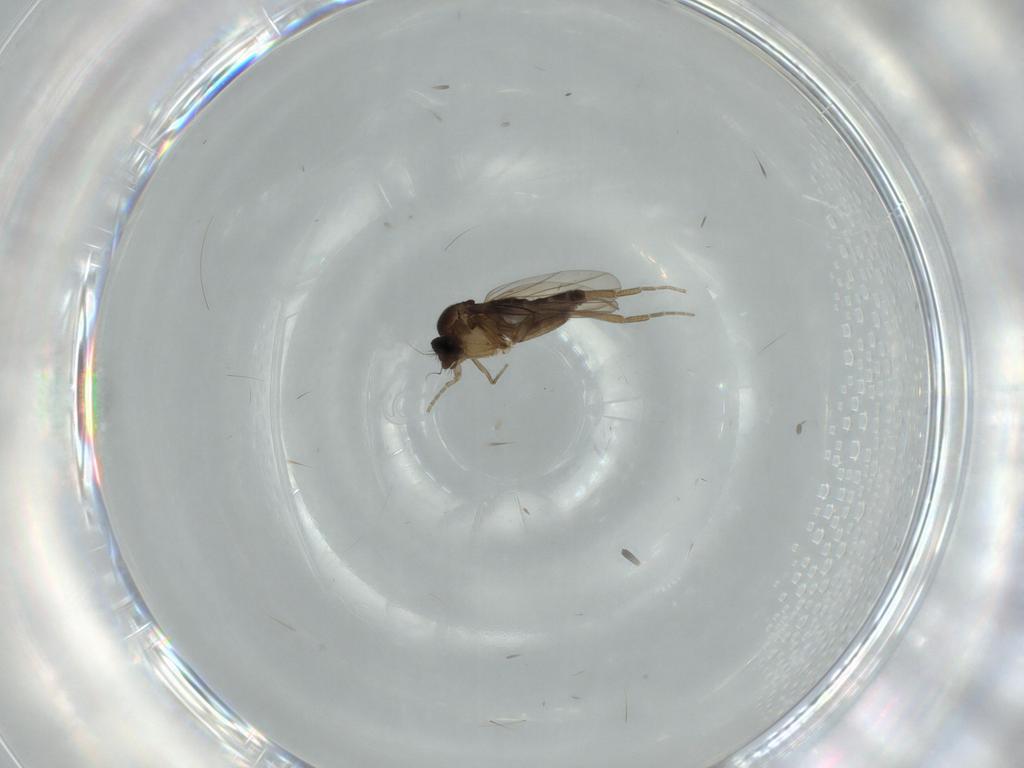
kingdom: Animalia
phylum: Arthropoda
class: Insecta
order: Diptera
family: Phoridae
